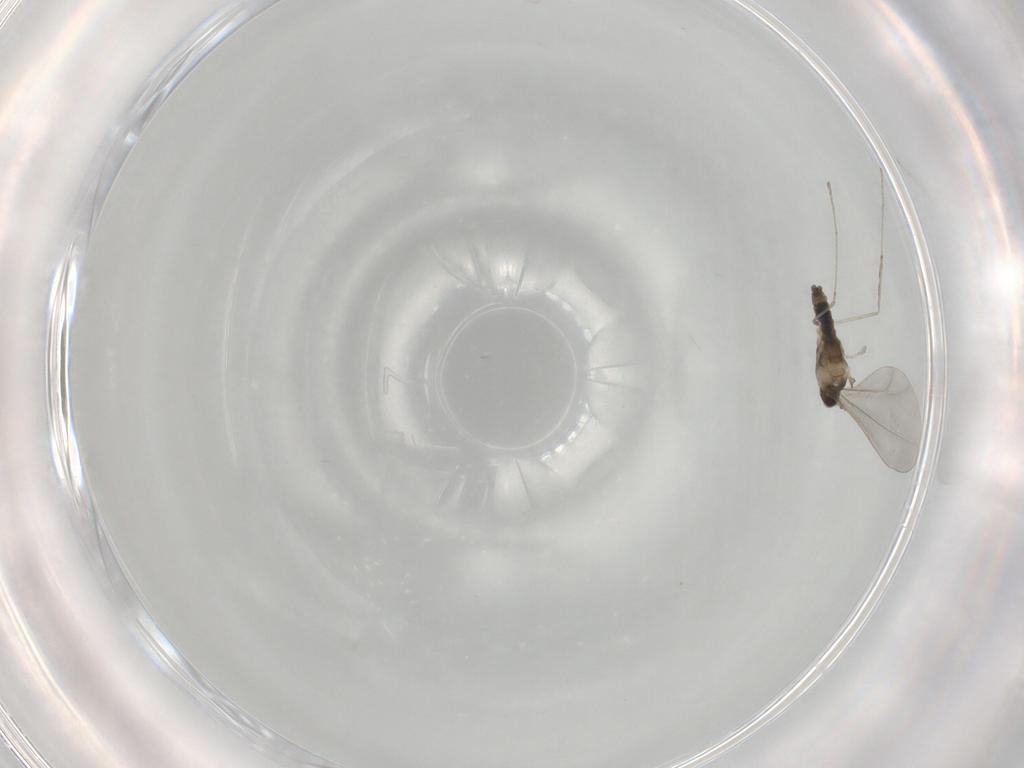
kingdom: Animalia
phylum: Arthropoda
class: Insecta
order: Diptera
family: Cecidomyiidae
